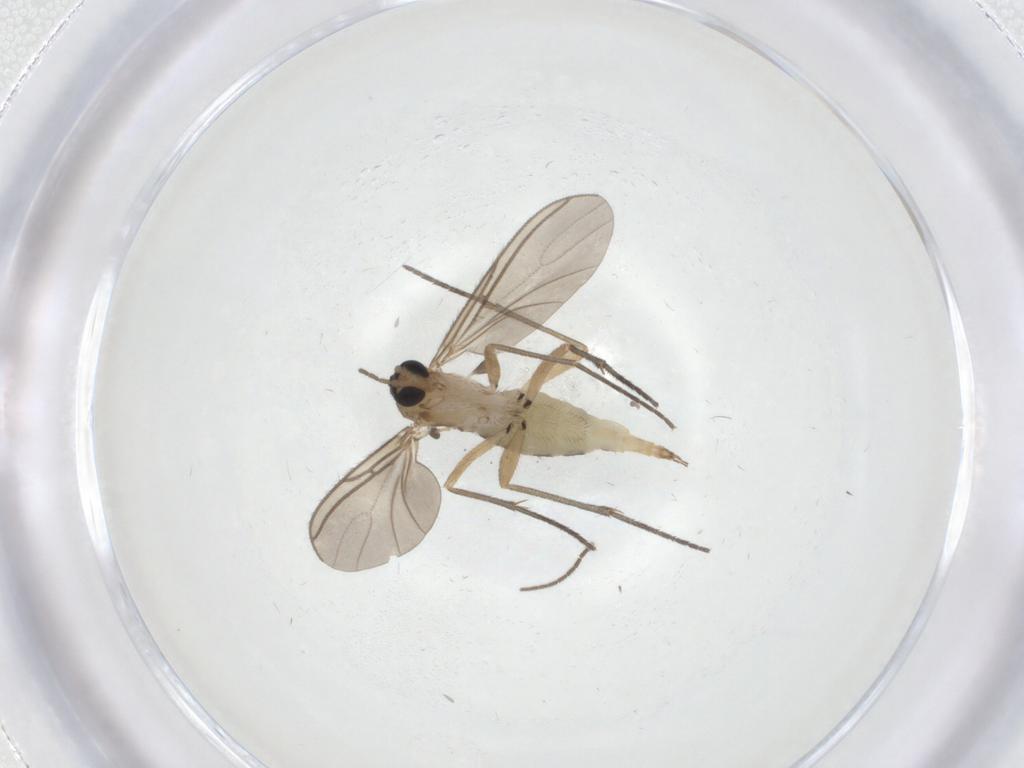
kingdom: Animalia
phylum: Arthropoda
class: Insecta
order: Diptera
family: Sciaridae
